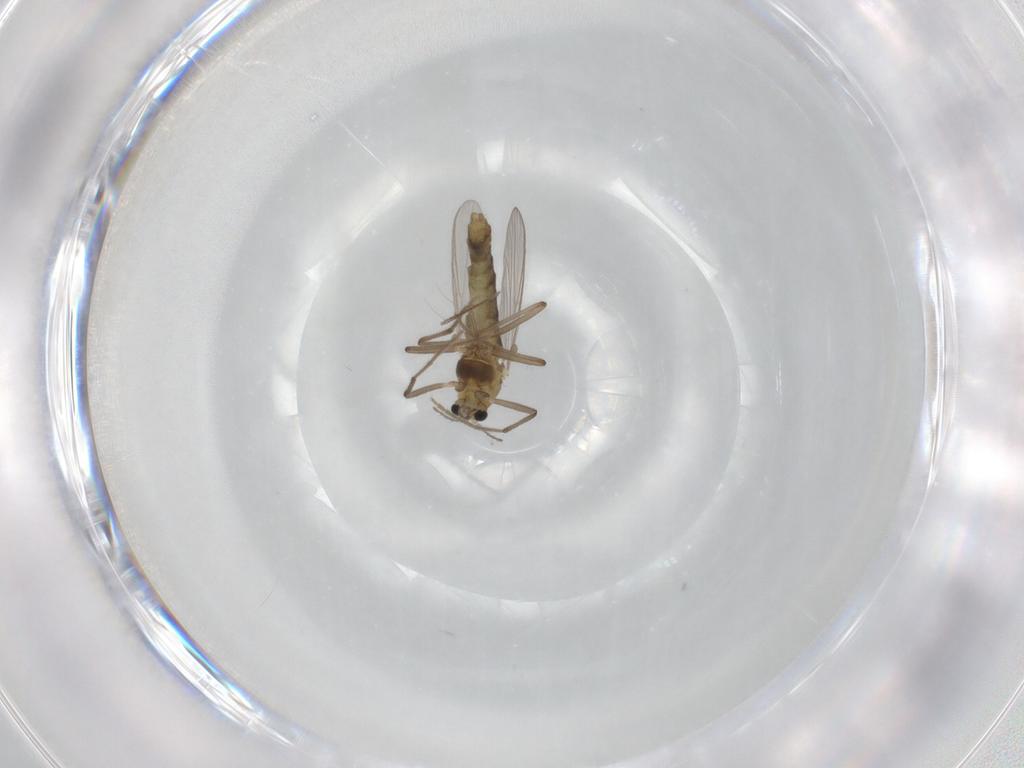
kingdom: Animalia
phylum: Arthropoda
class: Insecta
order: Diptera
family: Chironomidae
